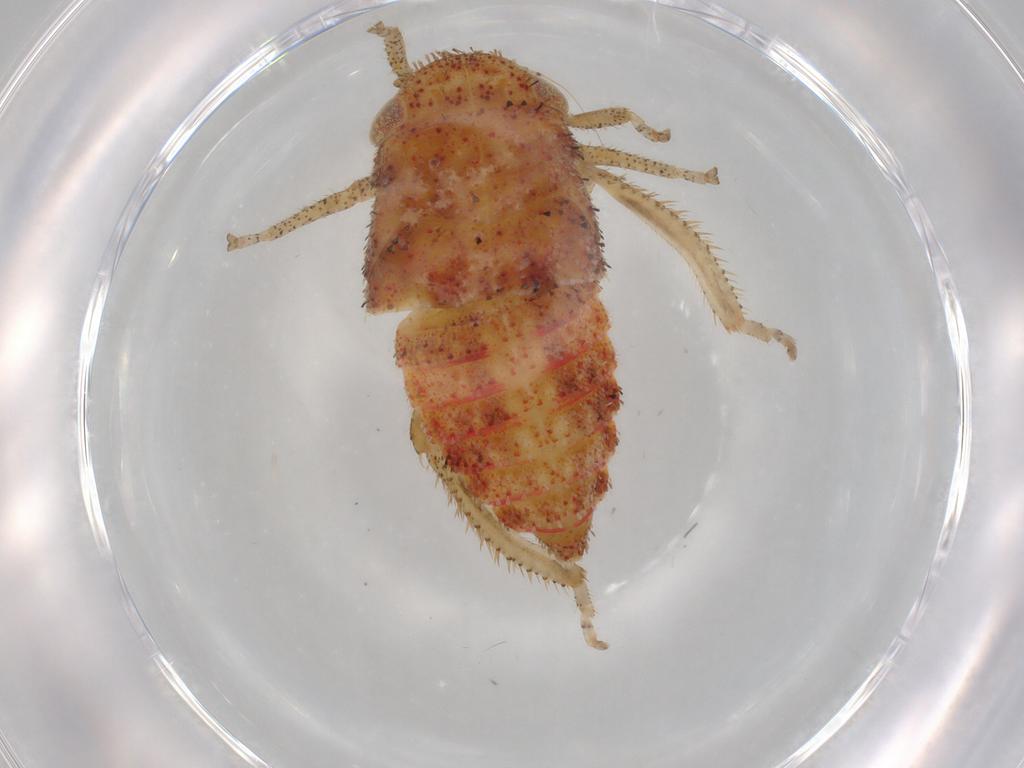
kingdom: Animalia
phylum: Arthropoda
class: Insecta
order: Hemiptera
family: Cicadellidae
